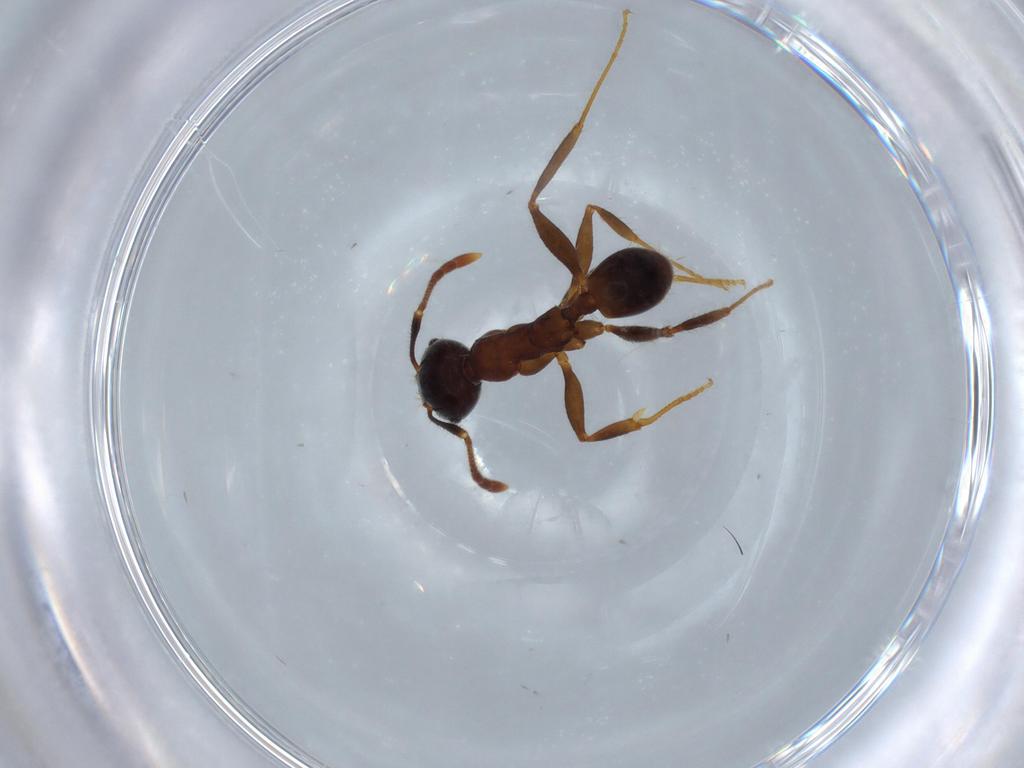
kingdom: Animalia
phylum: Arthropoda
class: Insecta
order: Hymenoptera
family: Formicidae
